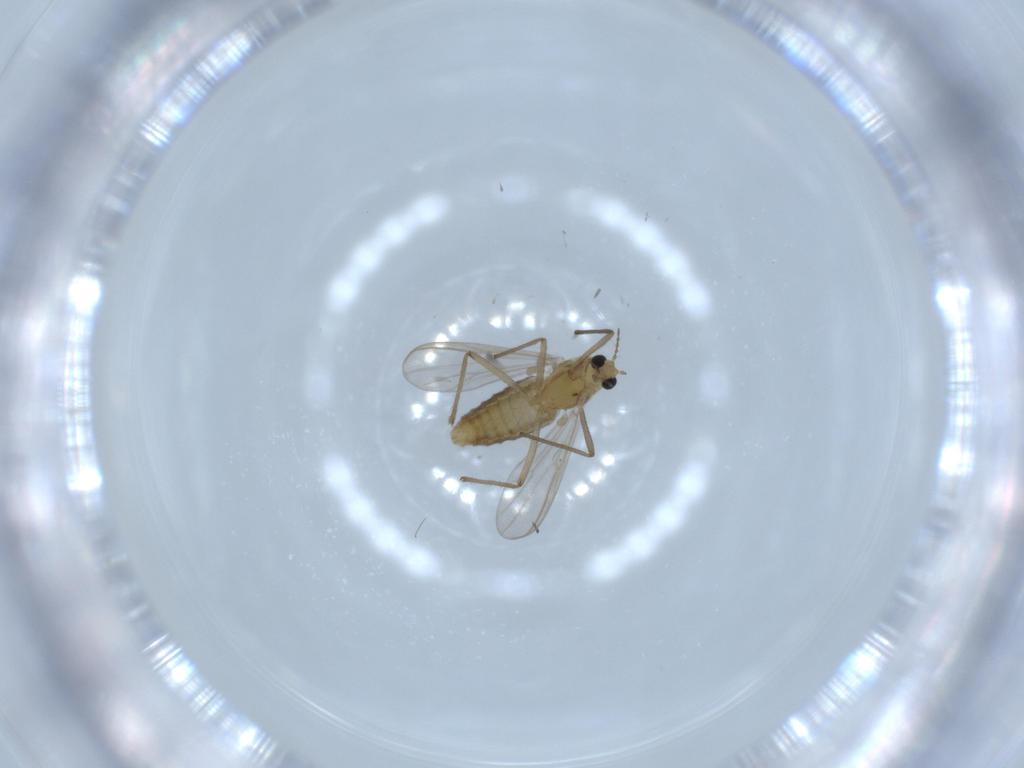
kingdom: Animalia
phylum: Arthropoda
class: Insecta
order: Diptera
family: Chironomidae
